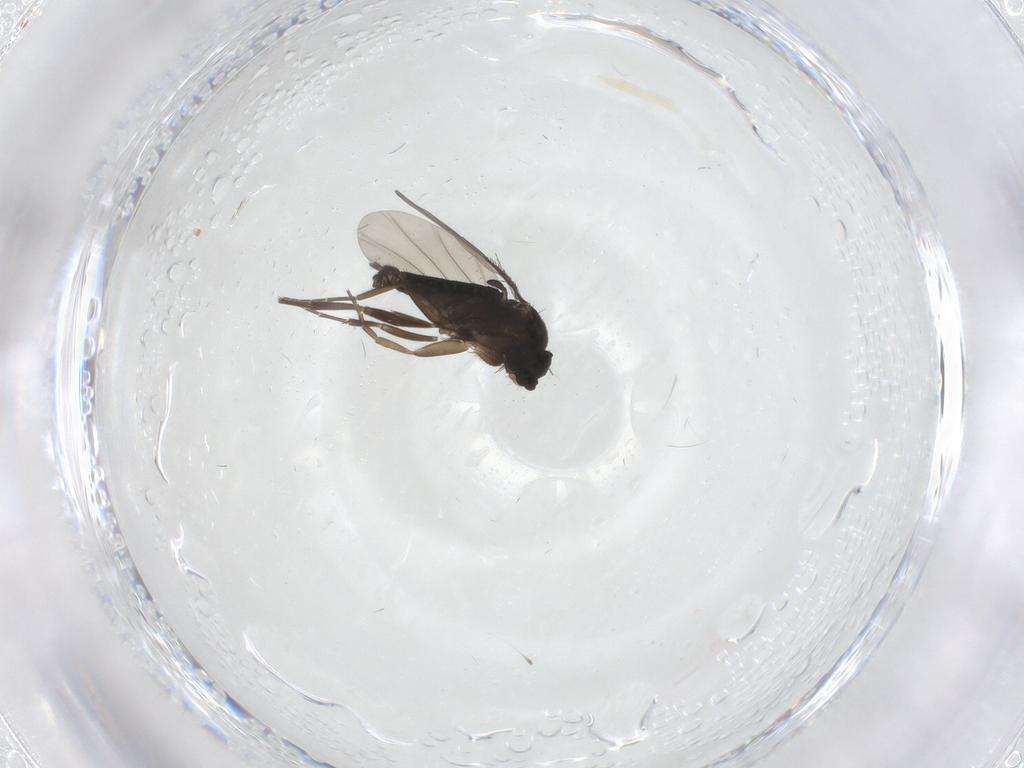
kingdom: Animalia
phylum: Arthropoda
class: Insecta
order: Diptera
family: Phoridae
